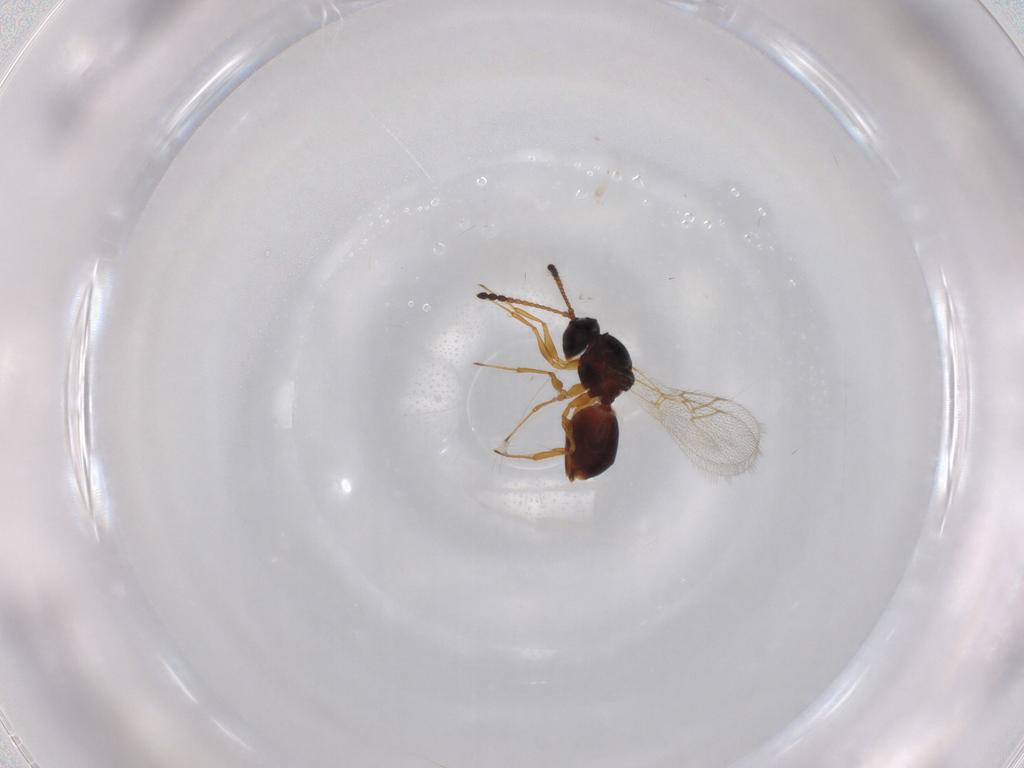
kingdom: Animalia
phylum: Arthropoda
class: Insecta
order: Hymenoptera
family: Figitidae
